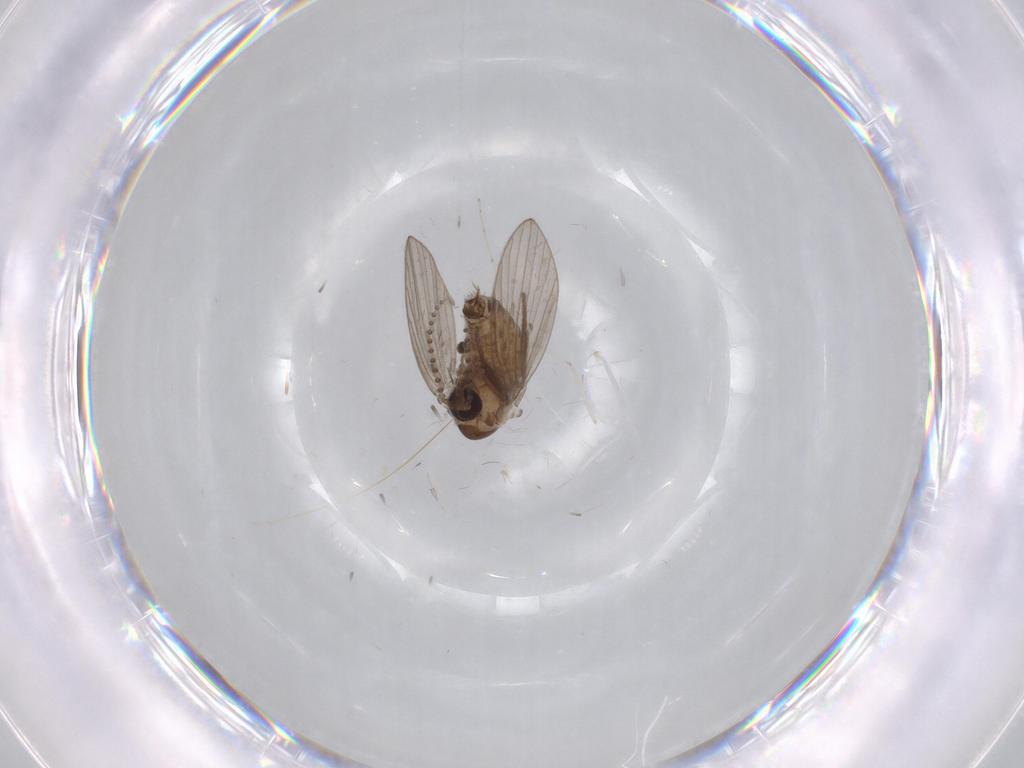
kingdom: Animalia
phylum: Arthropoda
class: Insecta
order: Diptera
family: Psychodidae
